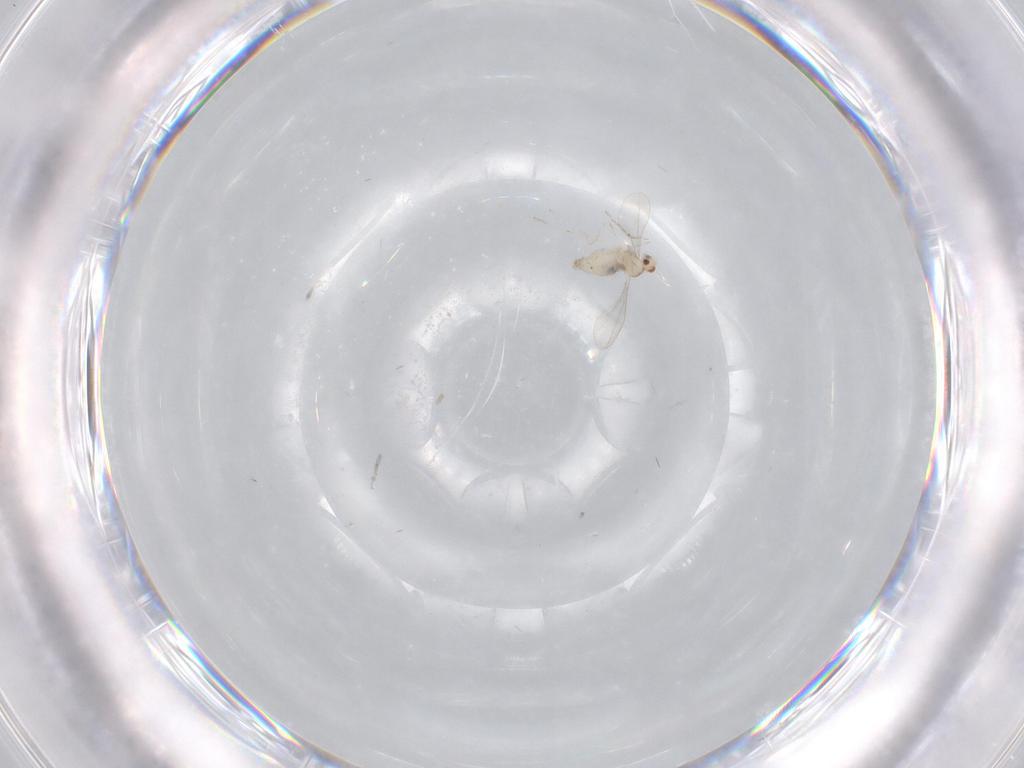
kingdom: Animalia
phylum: Arthropoda
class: Insecta
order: Diptera
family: Cecidomyiidae
